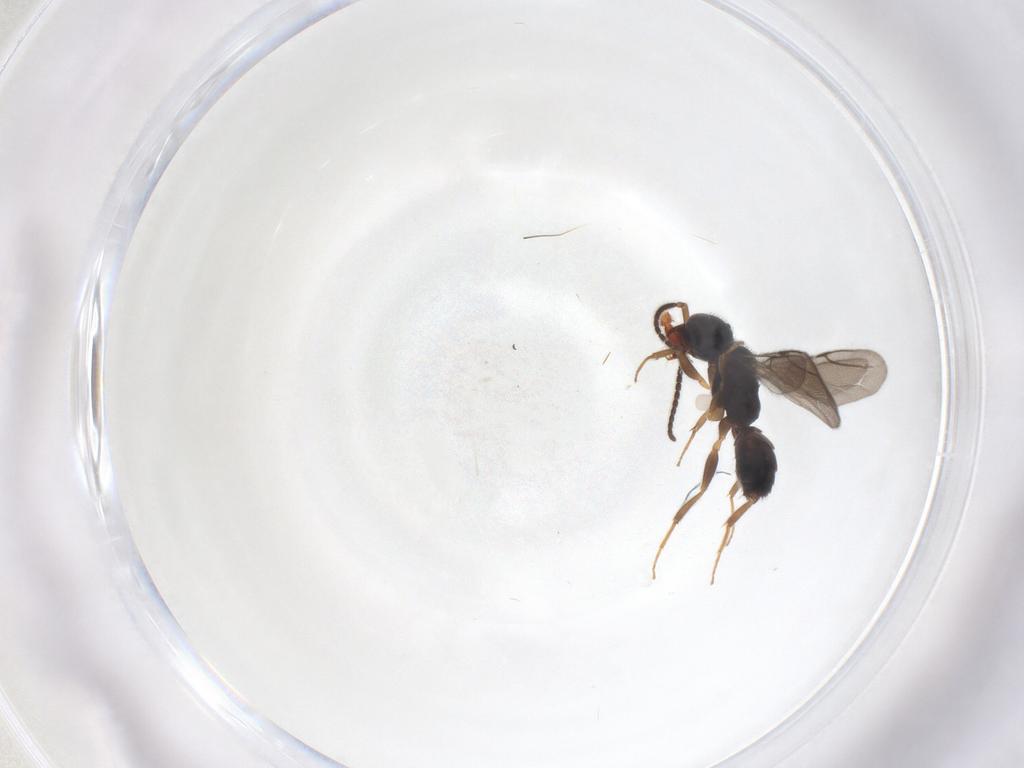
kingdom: Animalia
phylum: Arthropoda
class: Insecta
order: Hymenoptera
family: Formicidae
